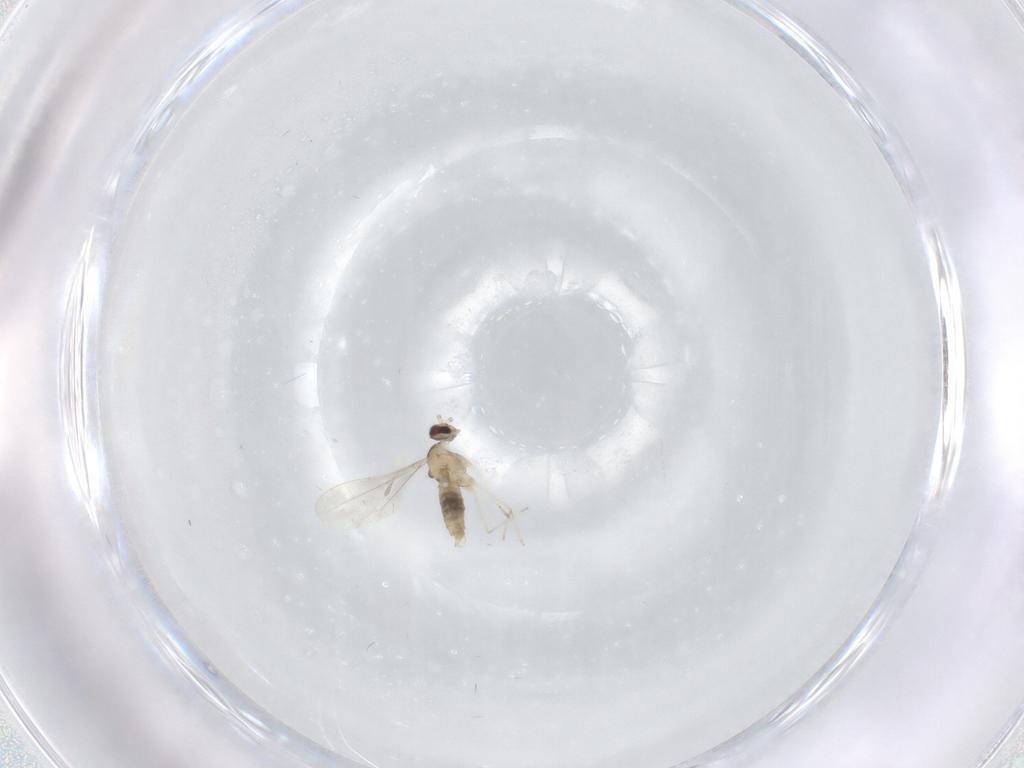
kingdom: Animalia
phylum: Arthropoda
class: Insecta
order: Diptera
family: Cecidomyiidae
